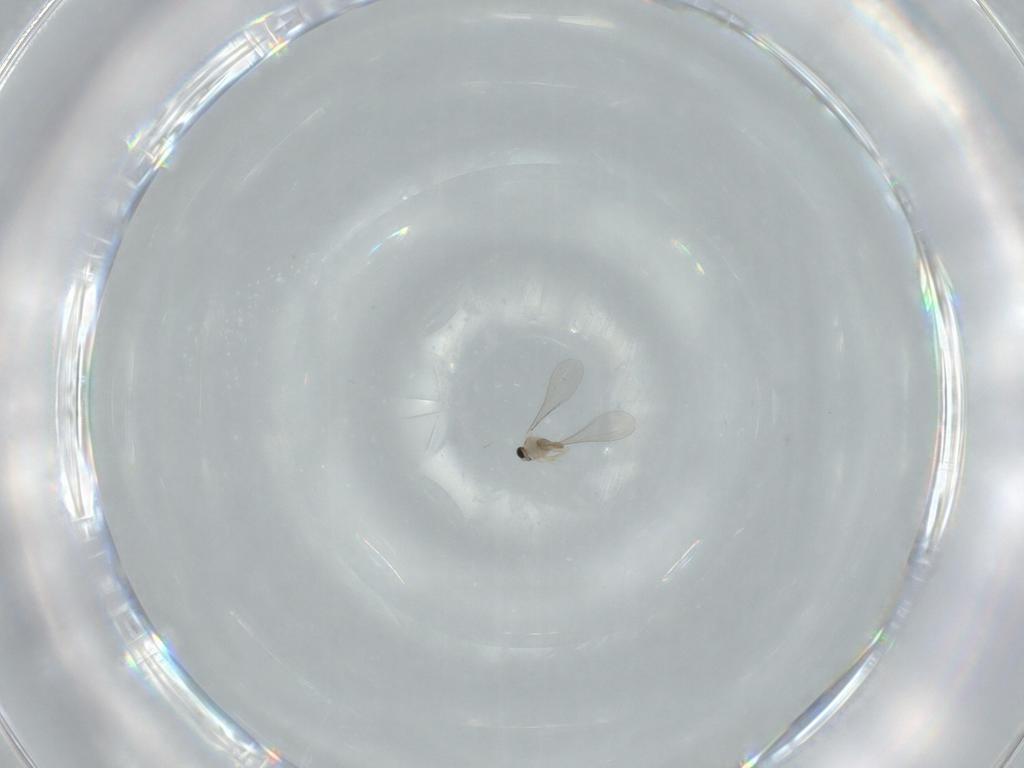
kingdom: Animalia
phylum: Arthropoda
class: Insecta
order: Diptera
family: Cecidomyiidae
